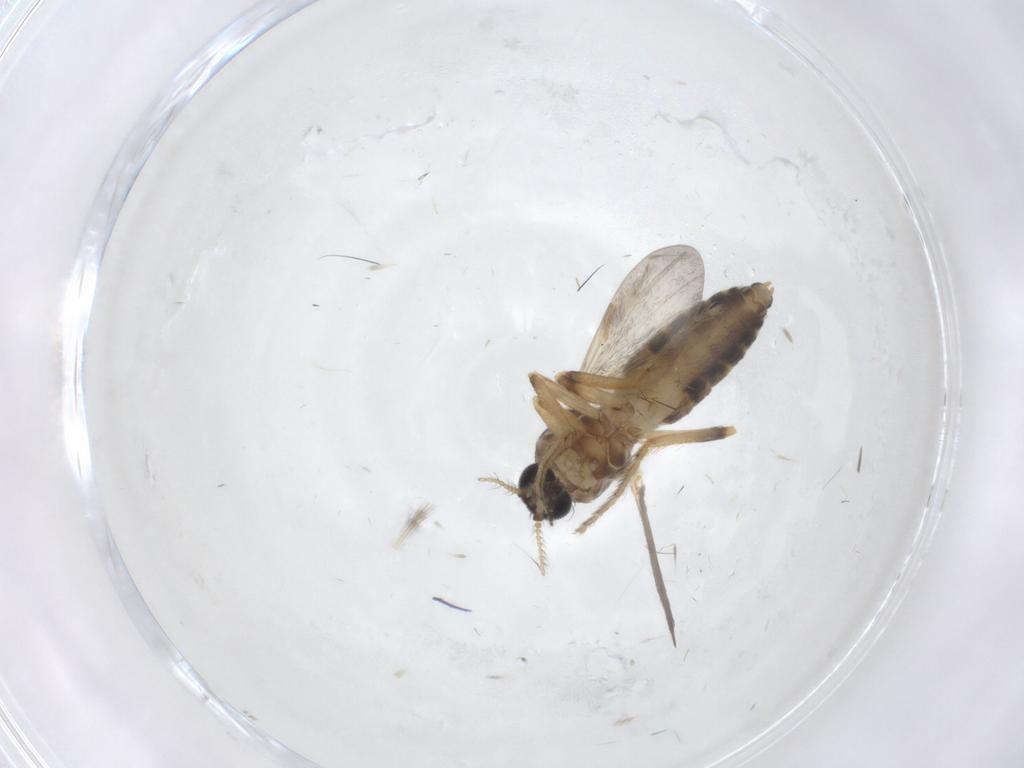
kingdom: Animalia
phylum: Arthropoda
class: Insecta
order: Diptera
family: Ceratopogonidae
